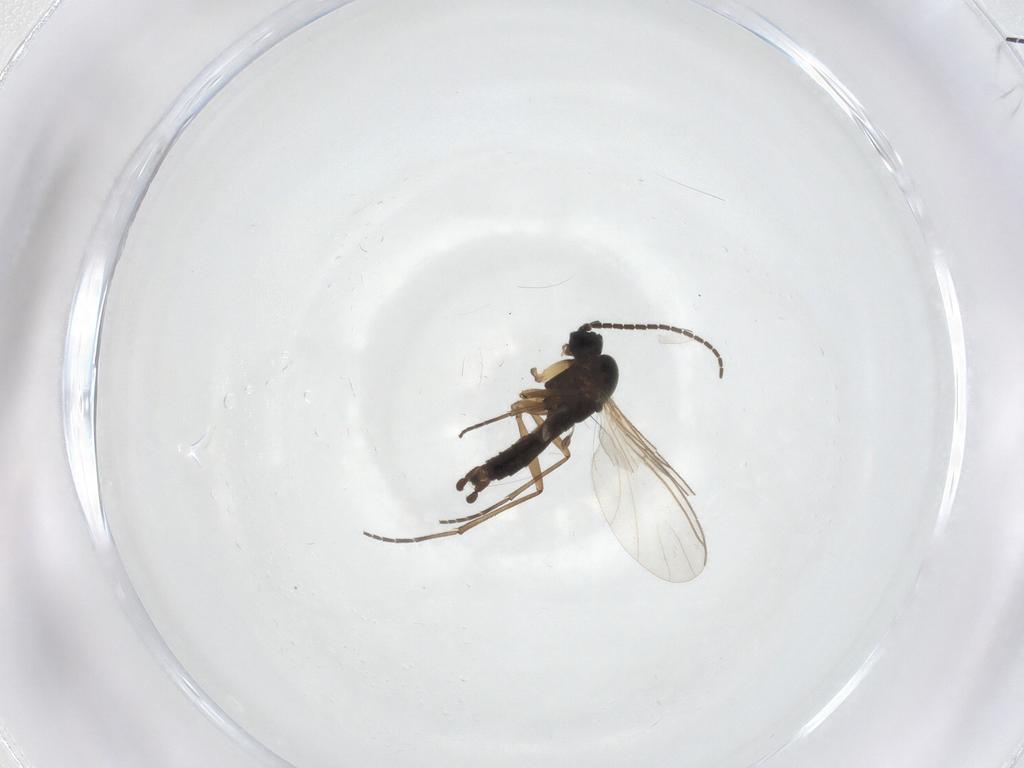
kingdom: Animalia
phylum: Arthropoda
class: Insecta
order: Diptera
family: Sciaridae
